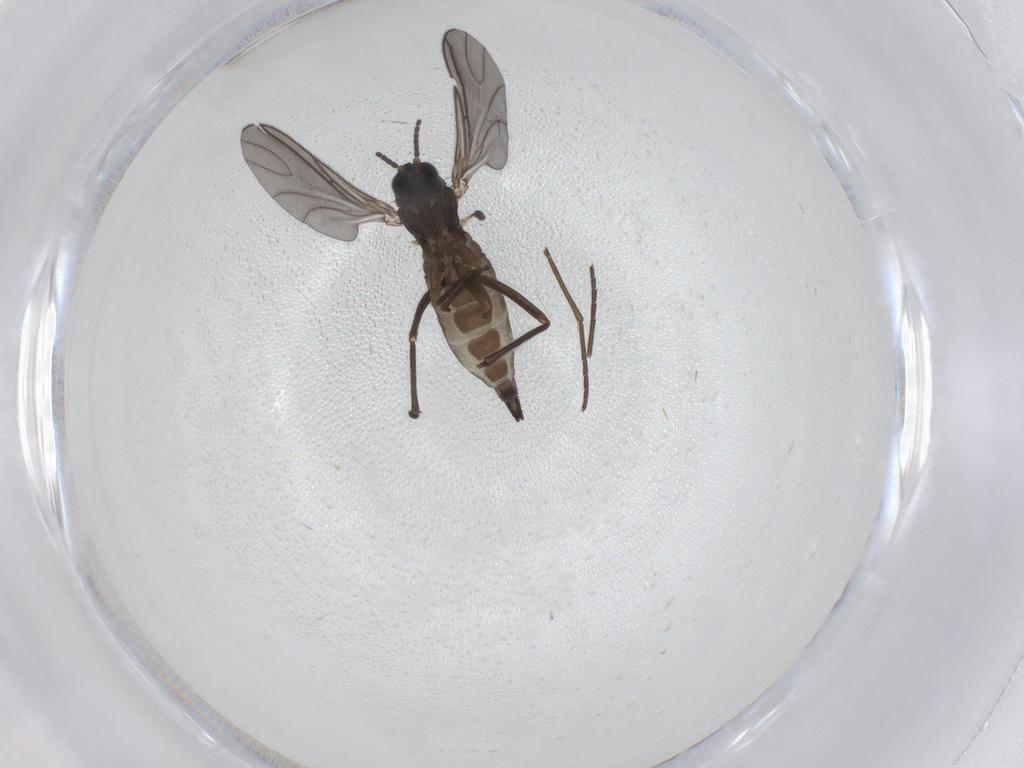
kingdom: Animalia
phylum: Arthropoda
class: Insecta
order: Diptera
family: Sciaridae
